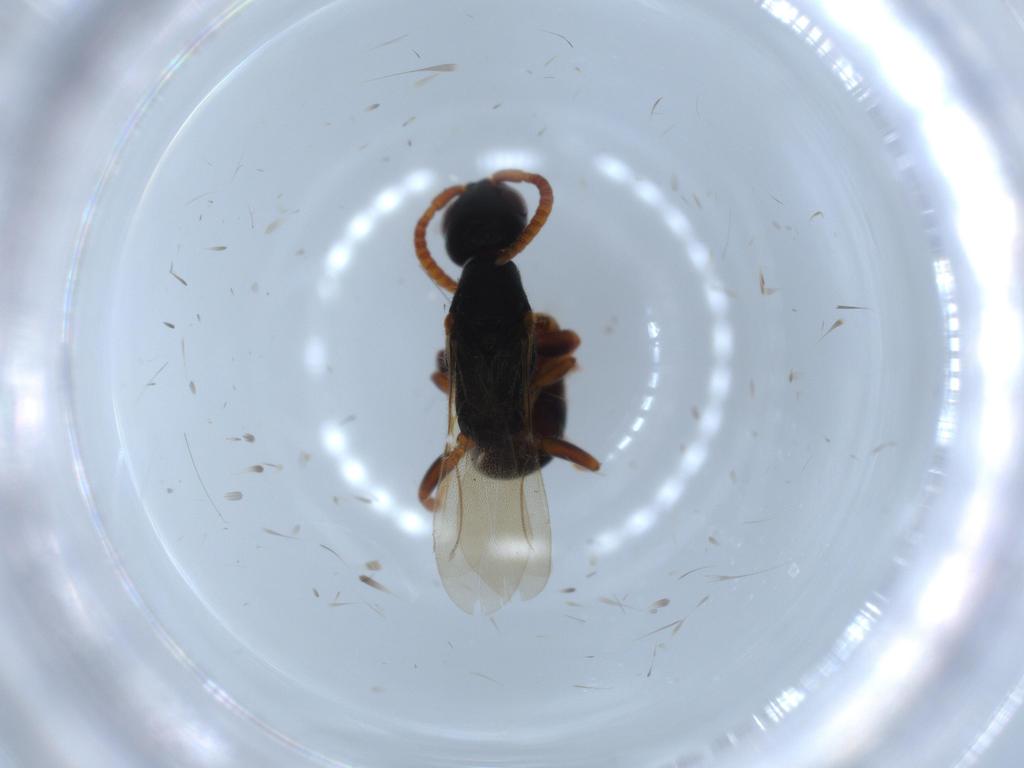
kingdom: Animalia
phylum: Arthropoda
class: Insecta
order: Hymenoptera
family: Bethylidae
